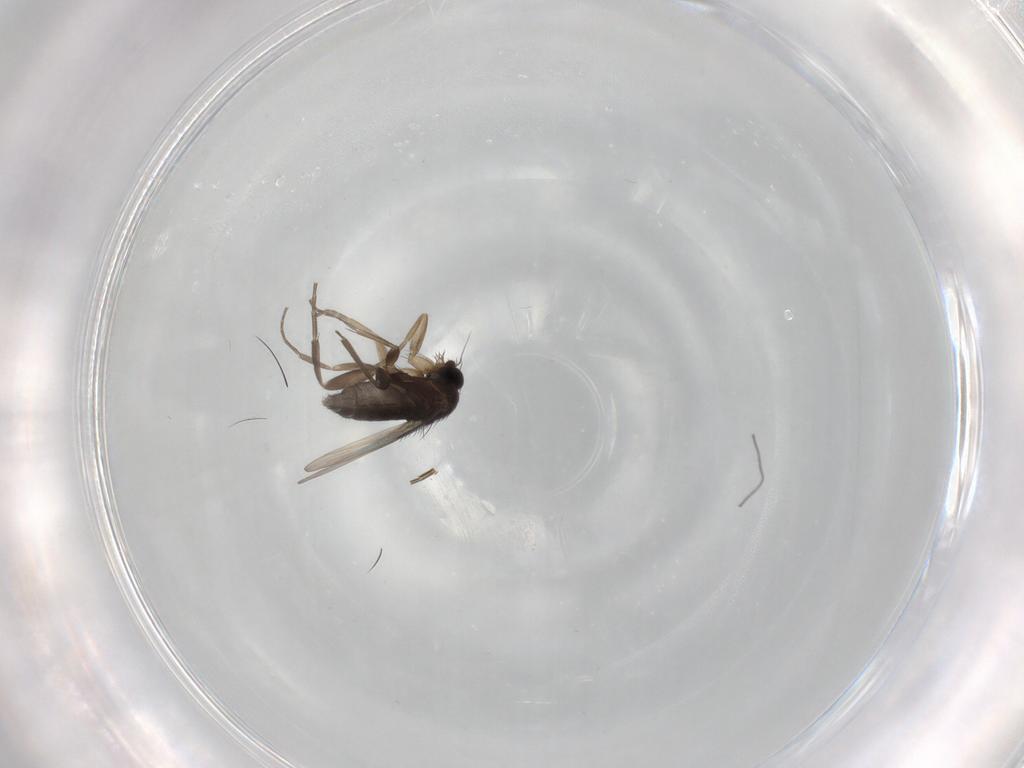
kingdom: Animalia
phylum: Arthropoda
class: Insecta
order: Diptera
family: Phoridae
